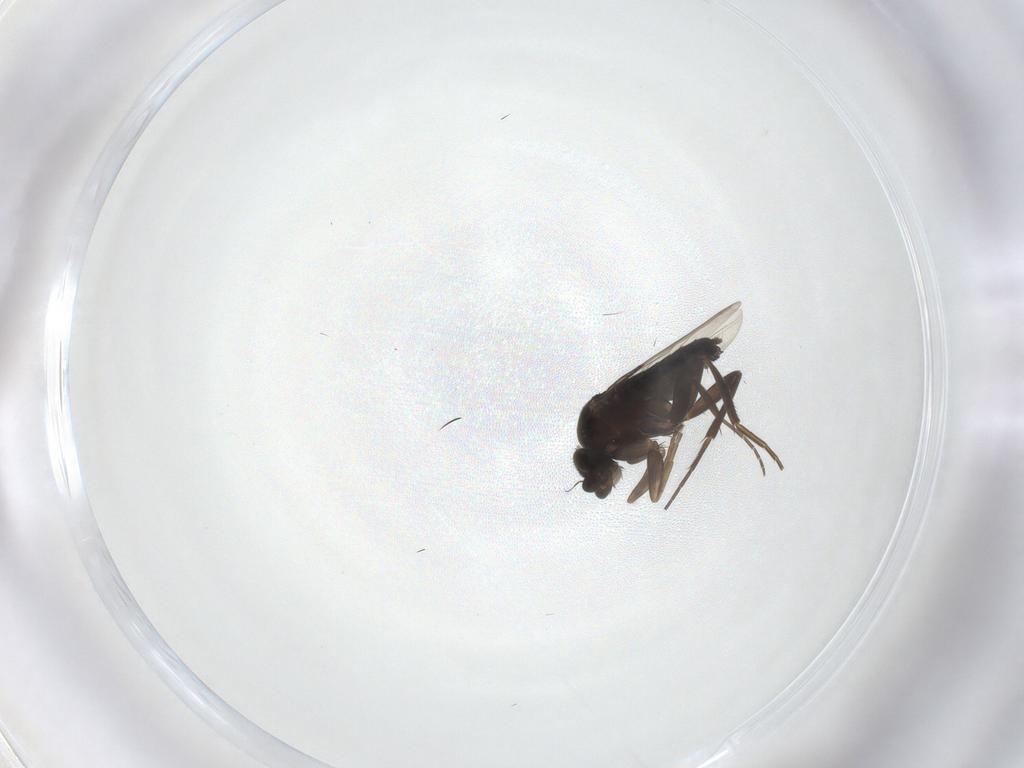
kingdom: Animalia
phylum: Arthropoda
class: Insecta
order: Diptera
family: Limoniidae
